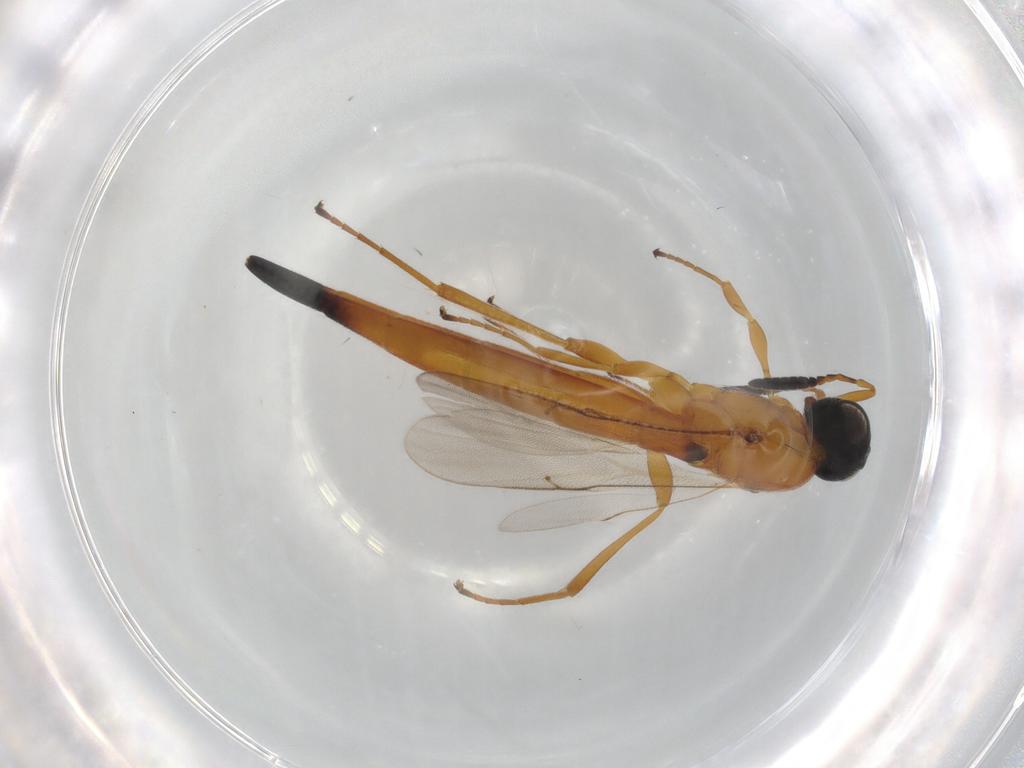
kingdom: Animalia
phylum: Arthropoda
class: Insecta
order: Hymenoptera
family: Scelionidae
